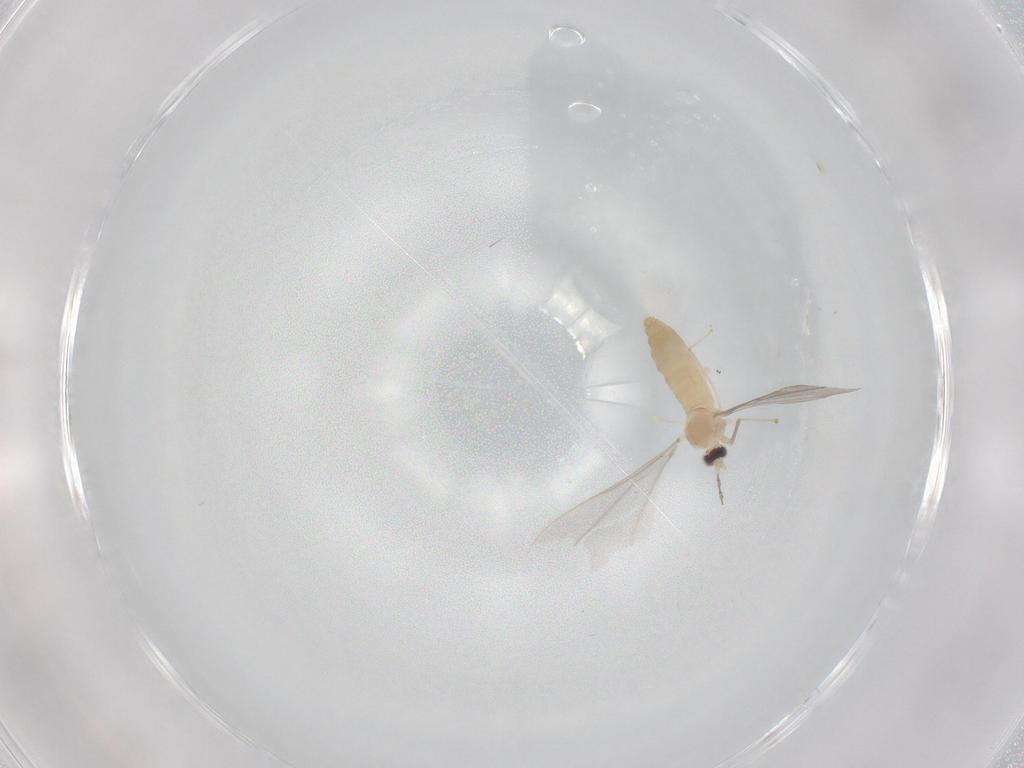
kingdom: Animalia
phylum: Arthropoda
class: Insecta
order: Diptera
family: Cecidomyiidae
